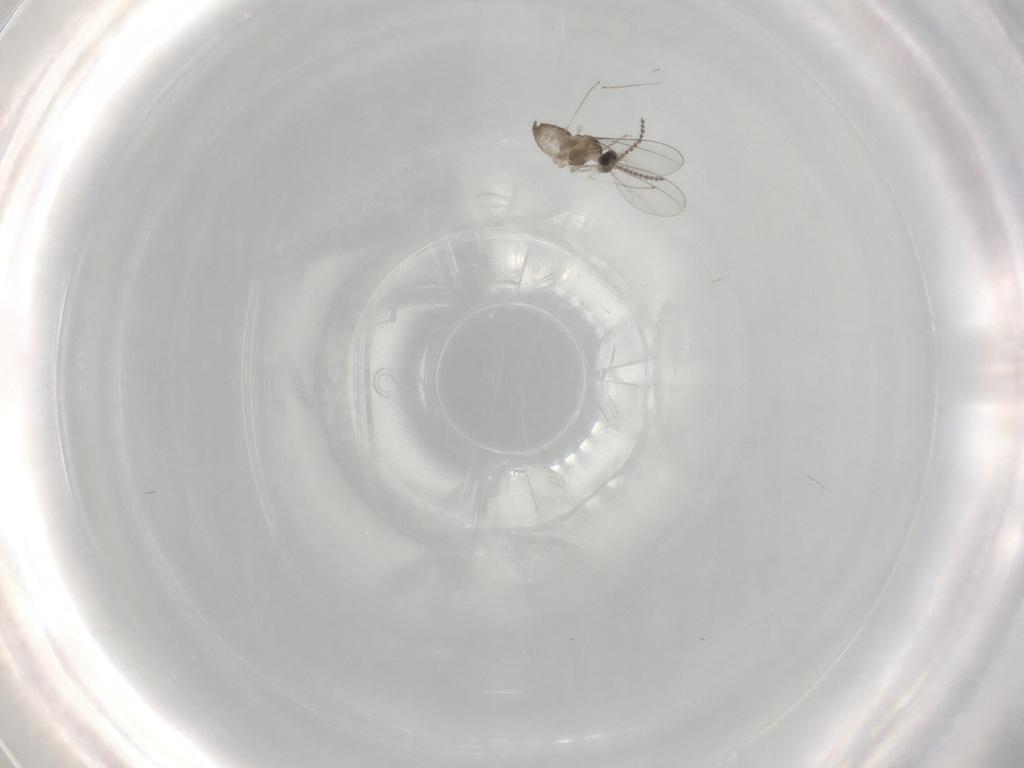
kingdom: Animalia
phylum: Arthropoda
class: Insecta
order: Diptera
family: Cecidomyiidae
